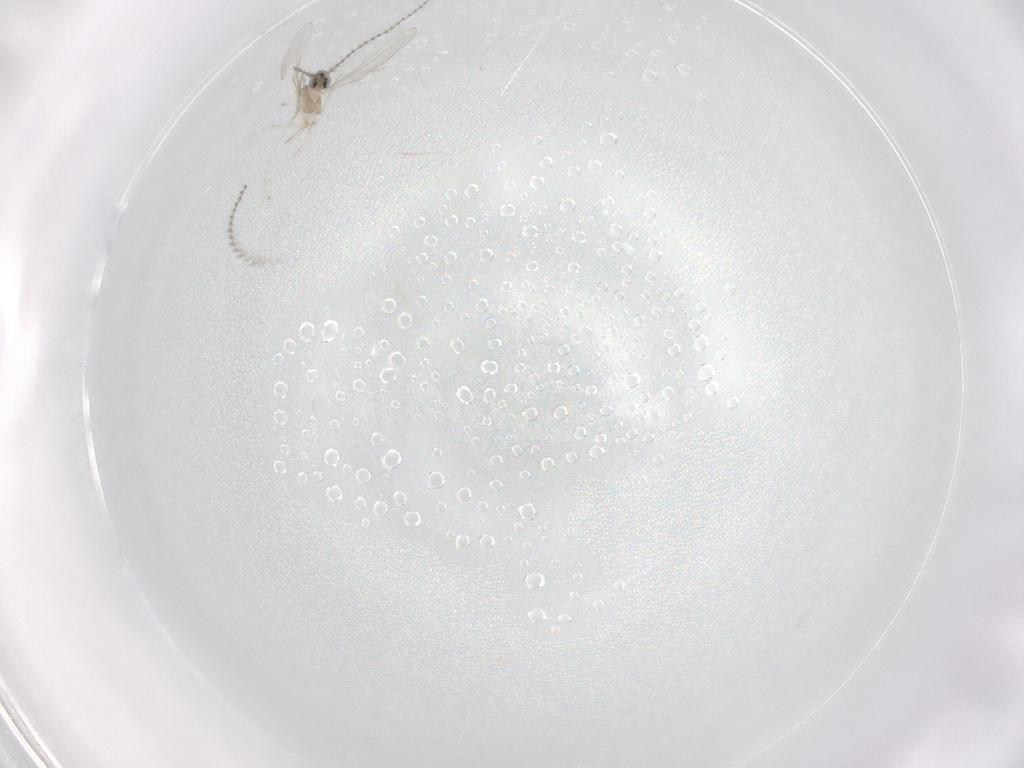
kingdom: Animalia
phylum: Arthropoda
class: Insecta
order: Diptera
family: Cecidomyiidae
